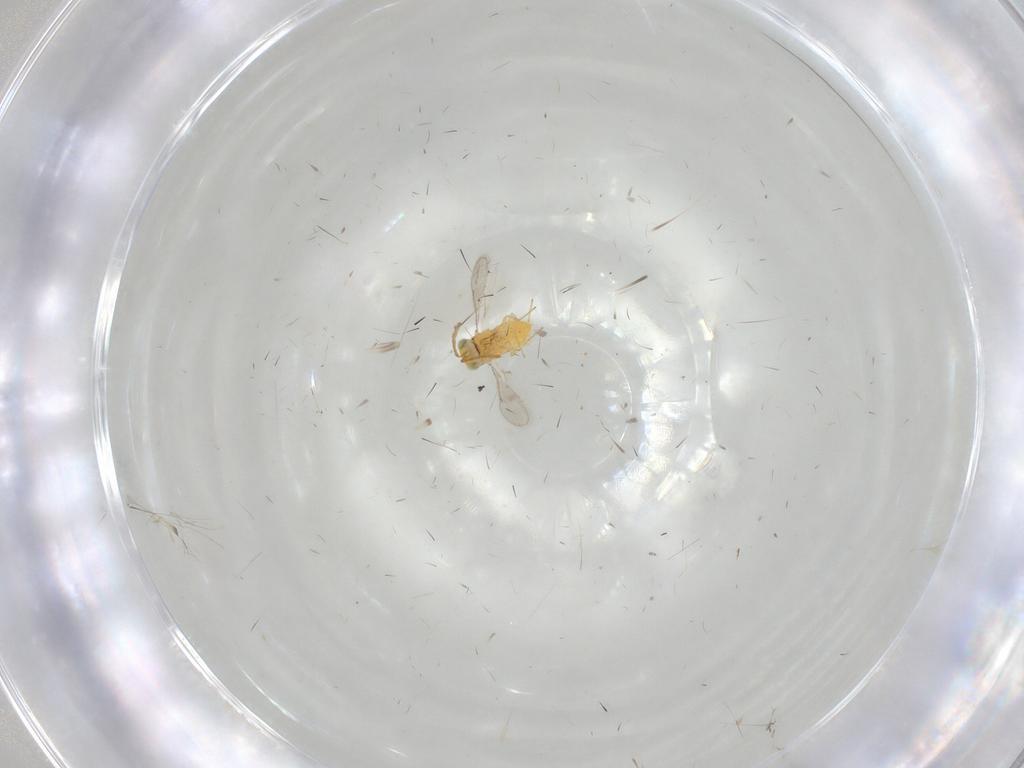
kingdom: Animalia
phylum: Arthropoda
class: Insecta
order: Hymenoptera
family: Aphelinidae
